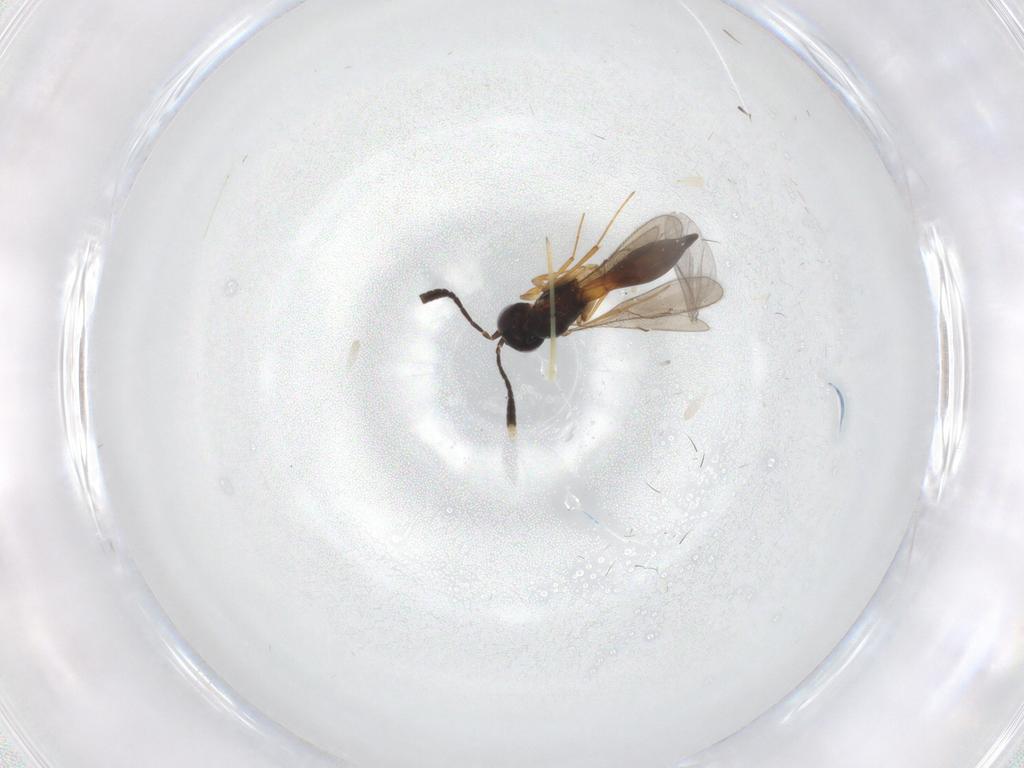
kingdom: Animalia
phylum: Arthropoda
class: Insecta
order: Hymenoptera
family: Scelionidae
